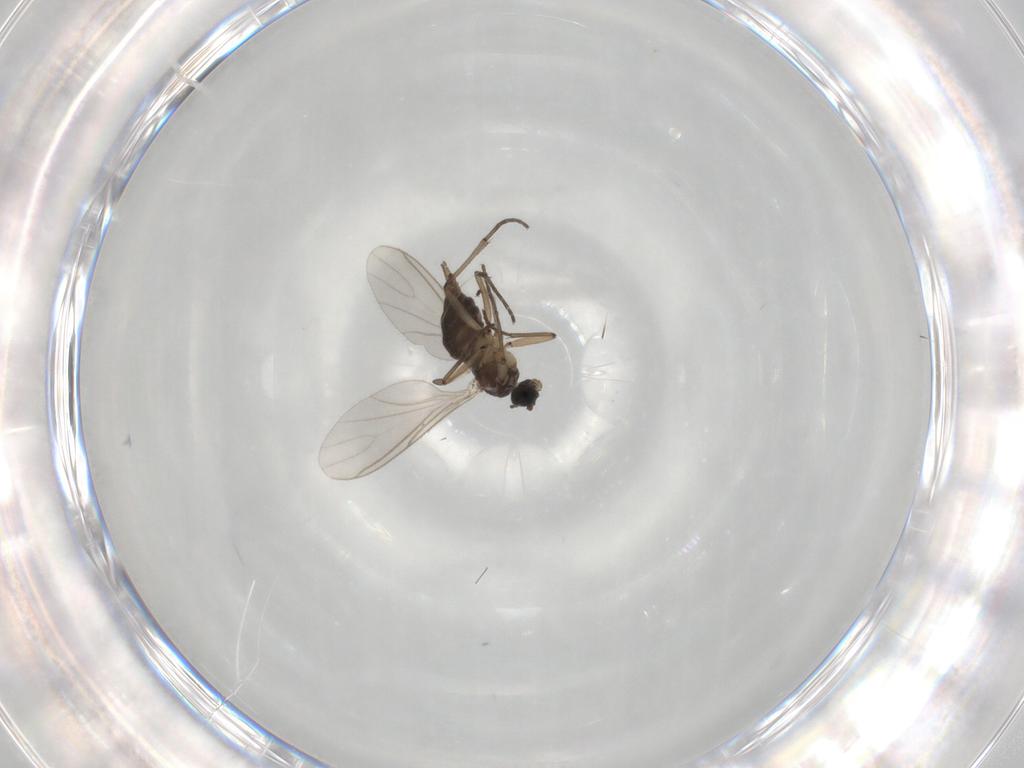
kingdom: Animalia
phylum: Arthropoda
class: Insecta
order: Diptera
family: Sciaridae
